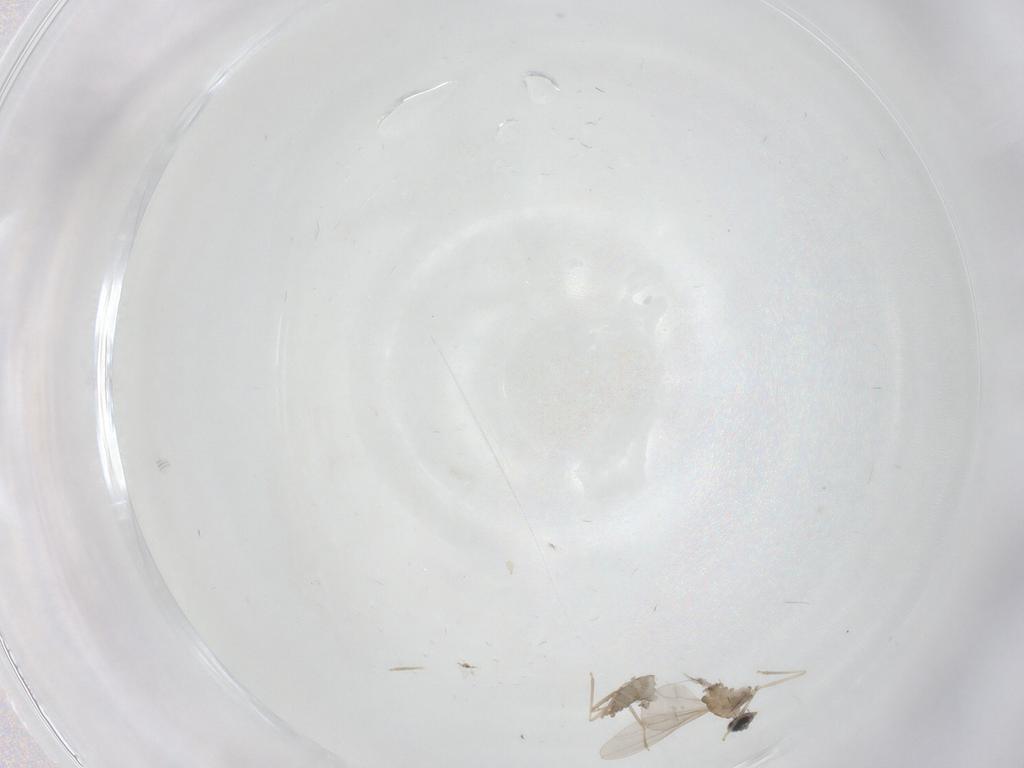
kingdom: Animalia
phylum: Arthropoda
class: Insecta
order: Diptera
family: Cecidomyiidae
